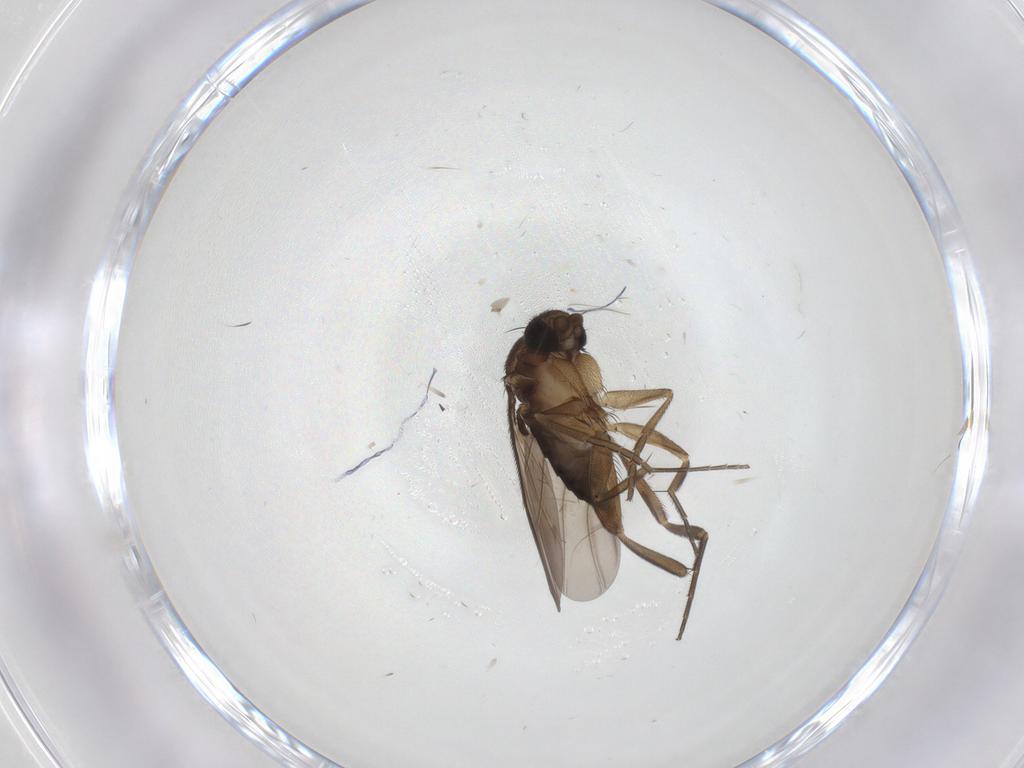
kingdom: Animalia
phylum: Arthropoda
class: Insecta
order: Diptera
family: Phoridae
